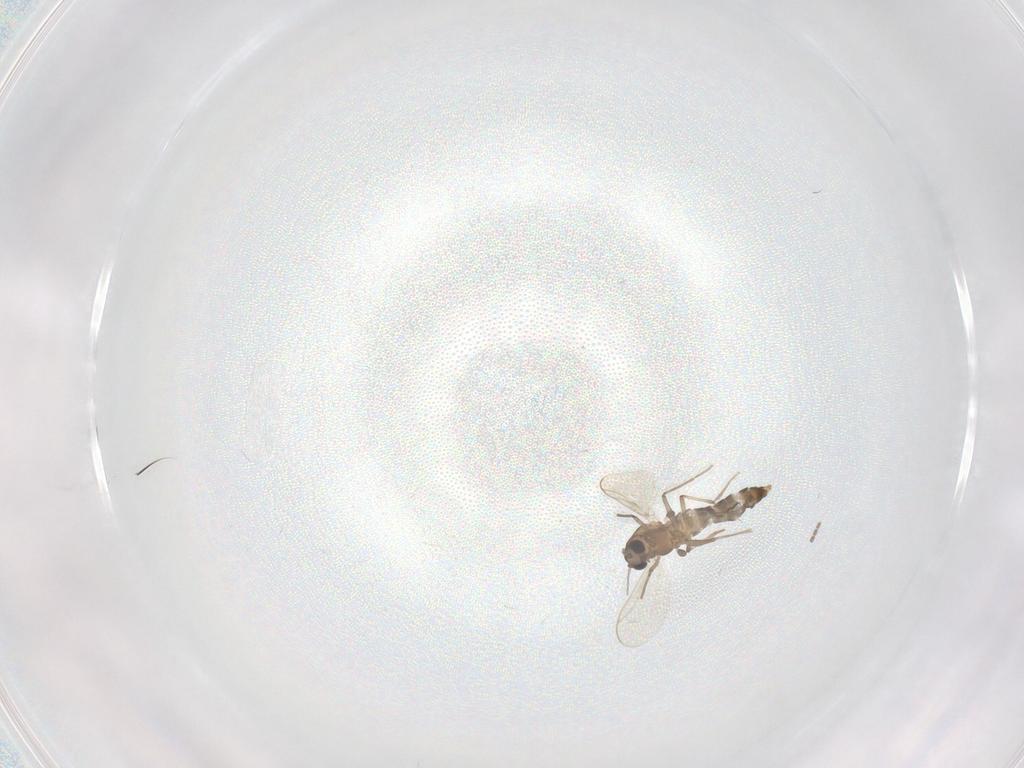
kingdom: Animalia
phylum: Arthropoda
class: Insecta
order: Diptera
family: Chironomidae
